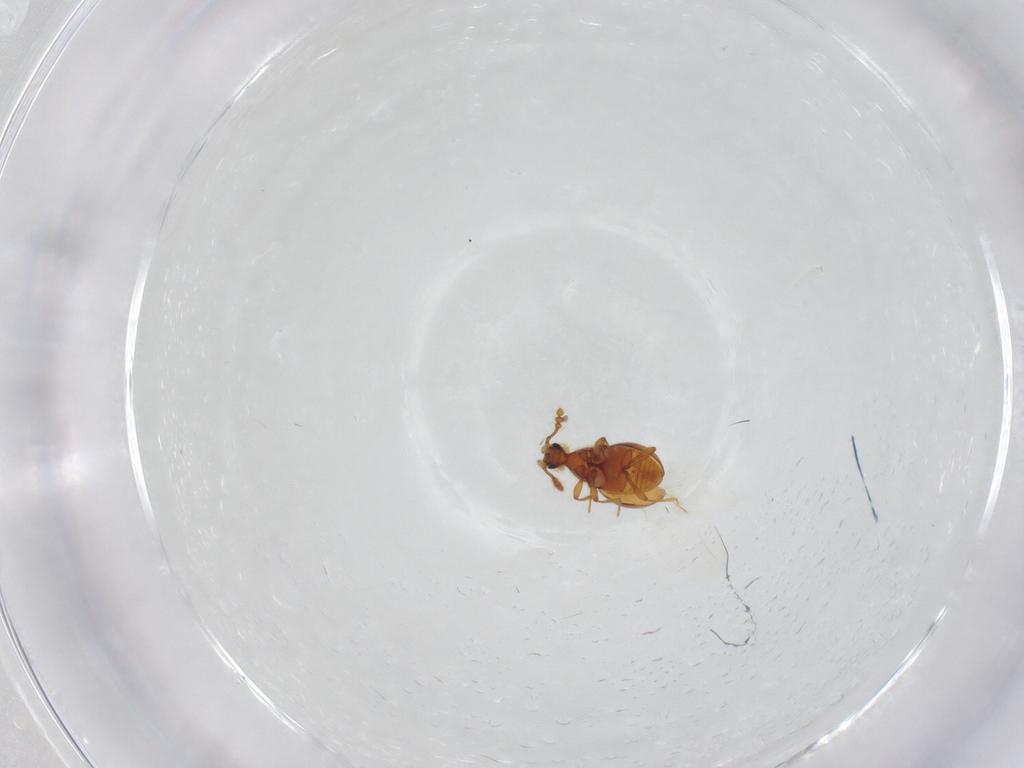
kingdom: Animalia
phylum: Arthropoda
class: Insecta
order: Coleoptera
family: Staphylinidae
